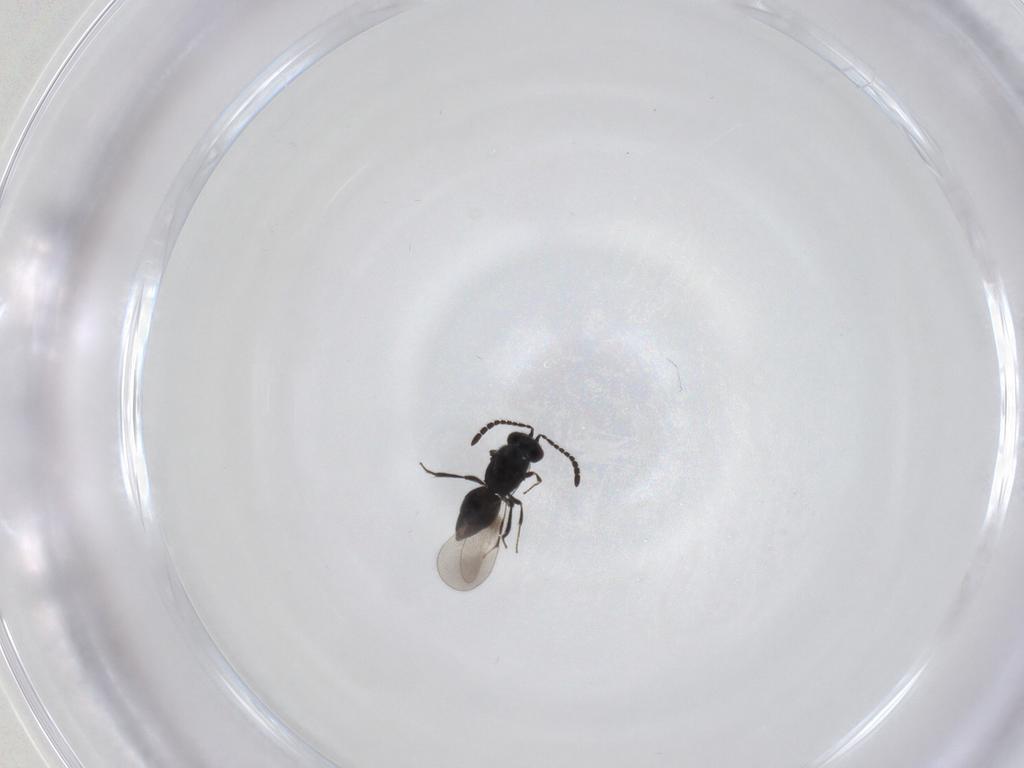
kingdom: Animalia
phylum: Arthropoda
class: Insecta
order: Hymenoptera
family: Ceraphronidae
